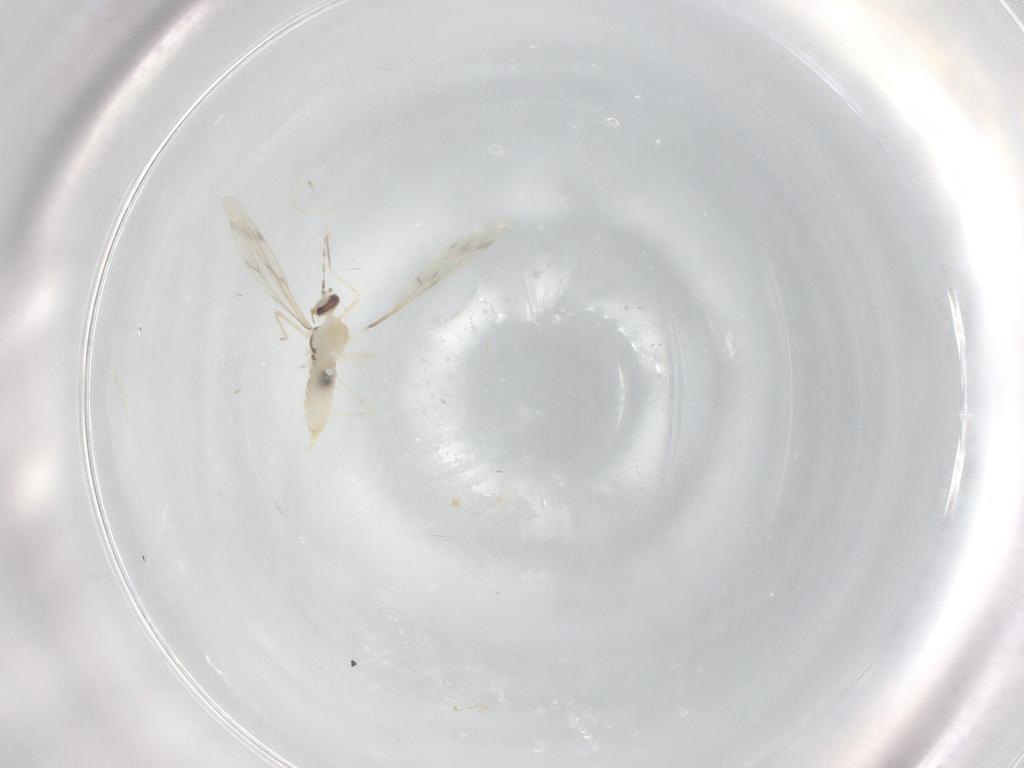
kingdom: Animalia
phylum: Arthropoda
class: Insecta
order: Diptera
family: Cecidomyiidae
